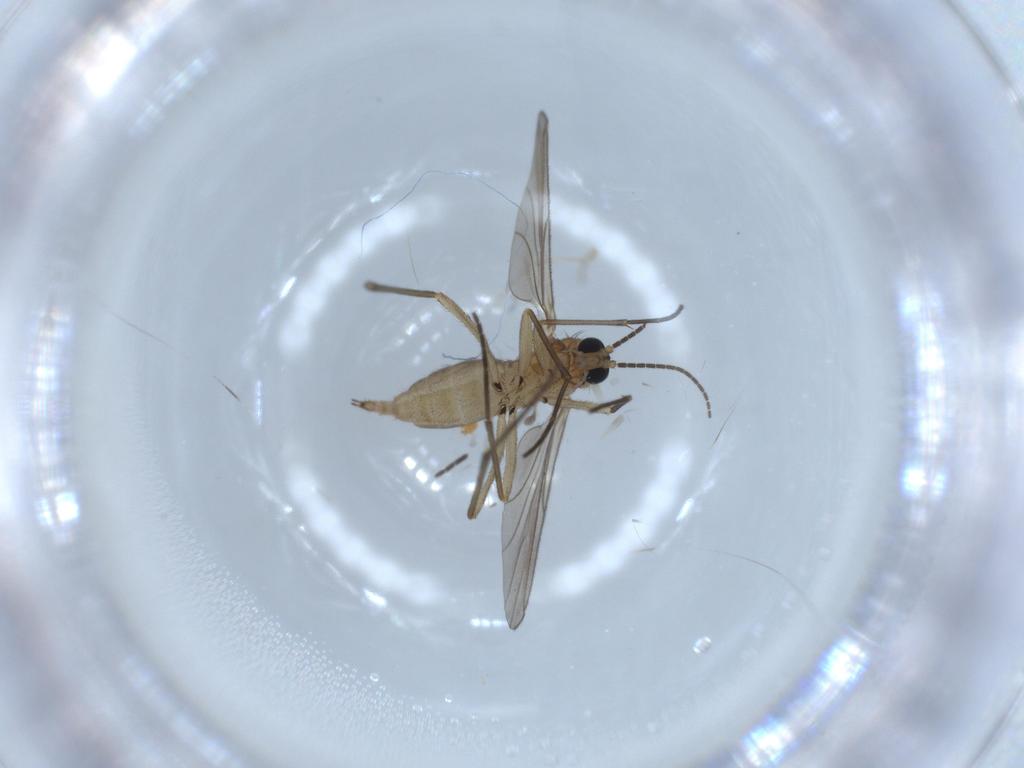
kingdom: Animalia
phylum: Arthropoda
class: Insecta
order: Diptera
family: Sciaridae
